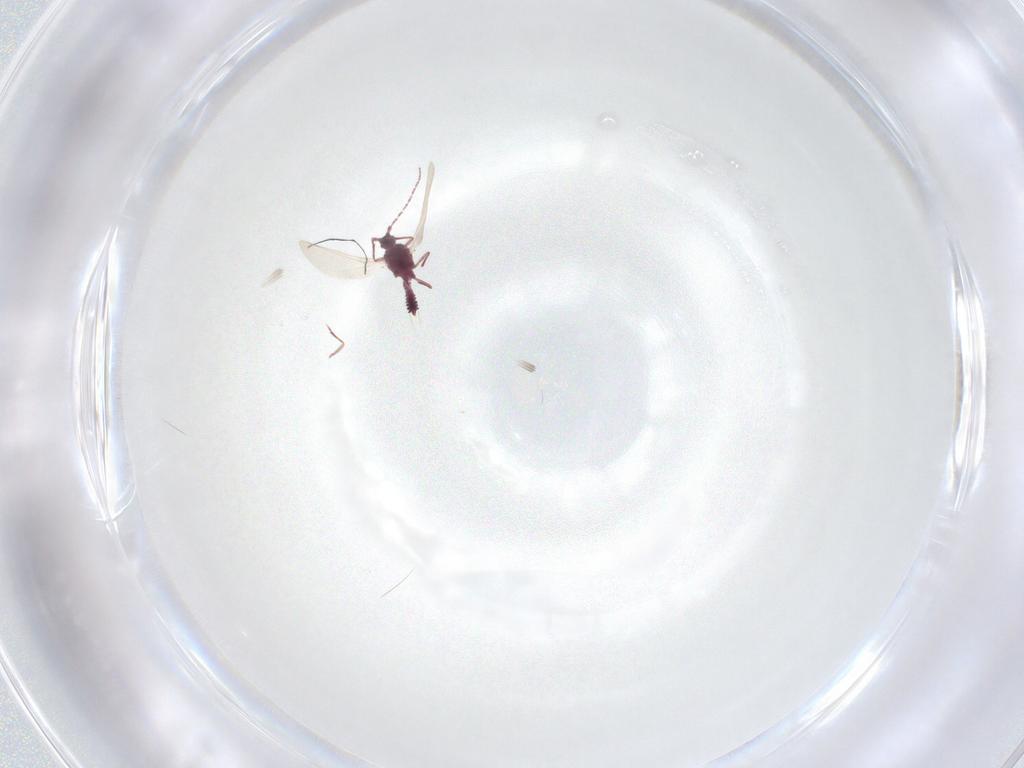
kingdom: Animalia
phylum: Arthropoda
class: Insecta
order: Hemiptera
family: Pseudococcidae
